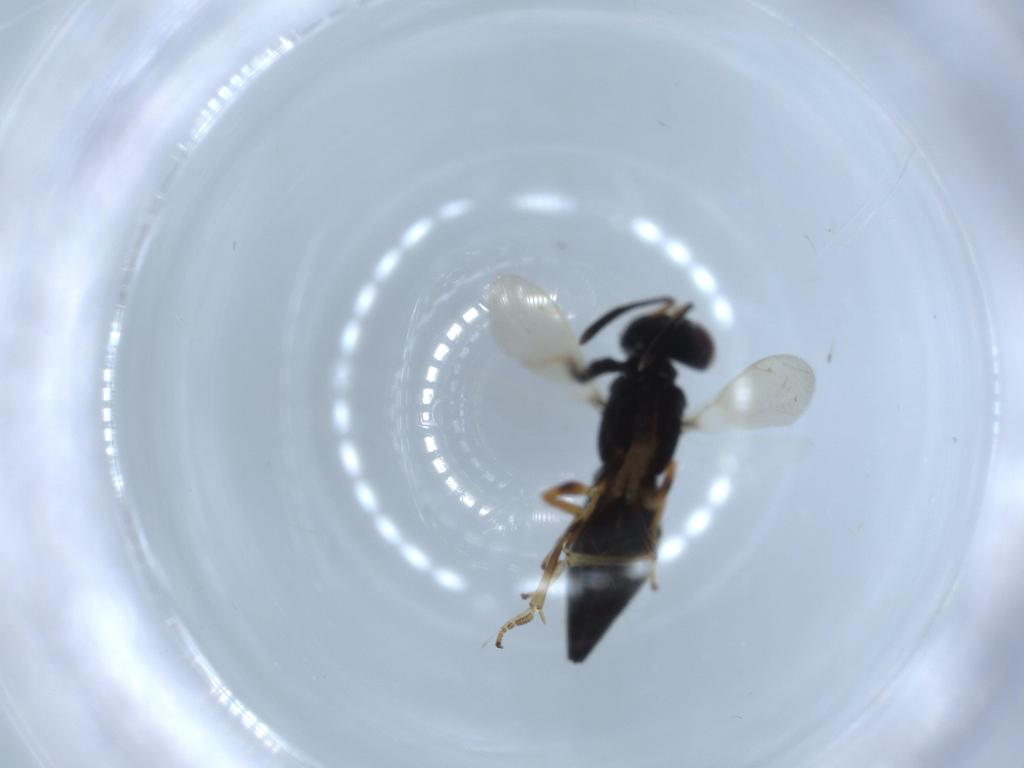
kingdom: Animalia
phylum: Arthropoda
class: Insecta
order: Hymenoptera
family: Formicidae
